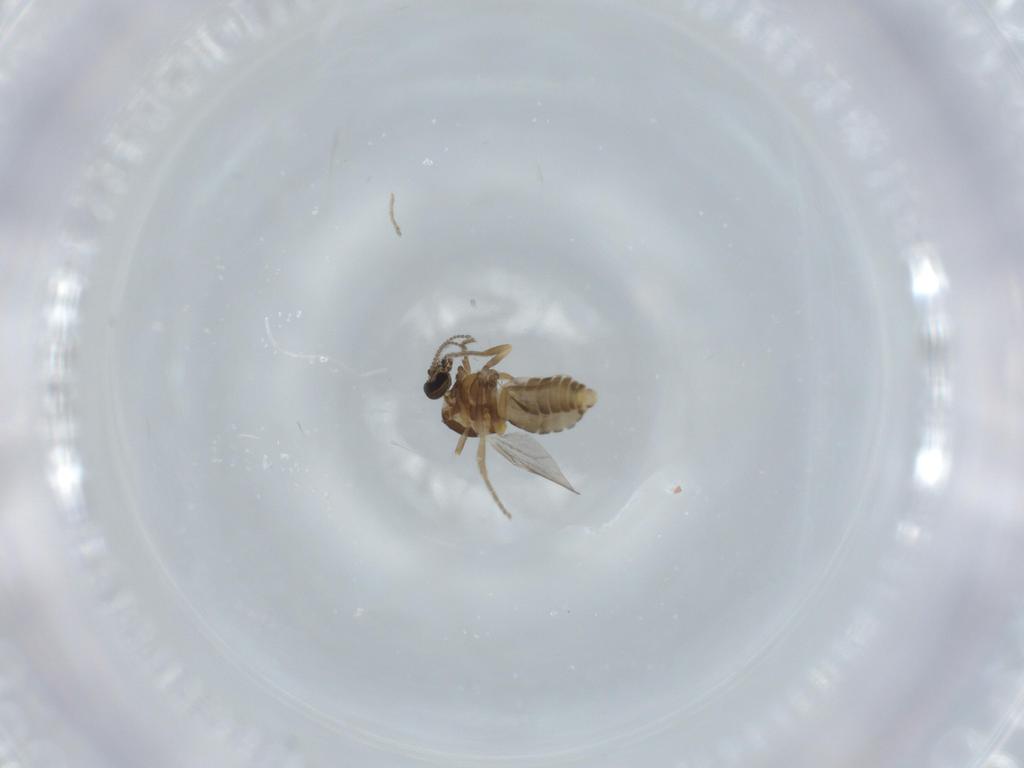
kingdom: Animalia
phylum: Arthropoda
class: Insecta
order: Diptera
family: Ceratopogonidae
